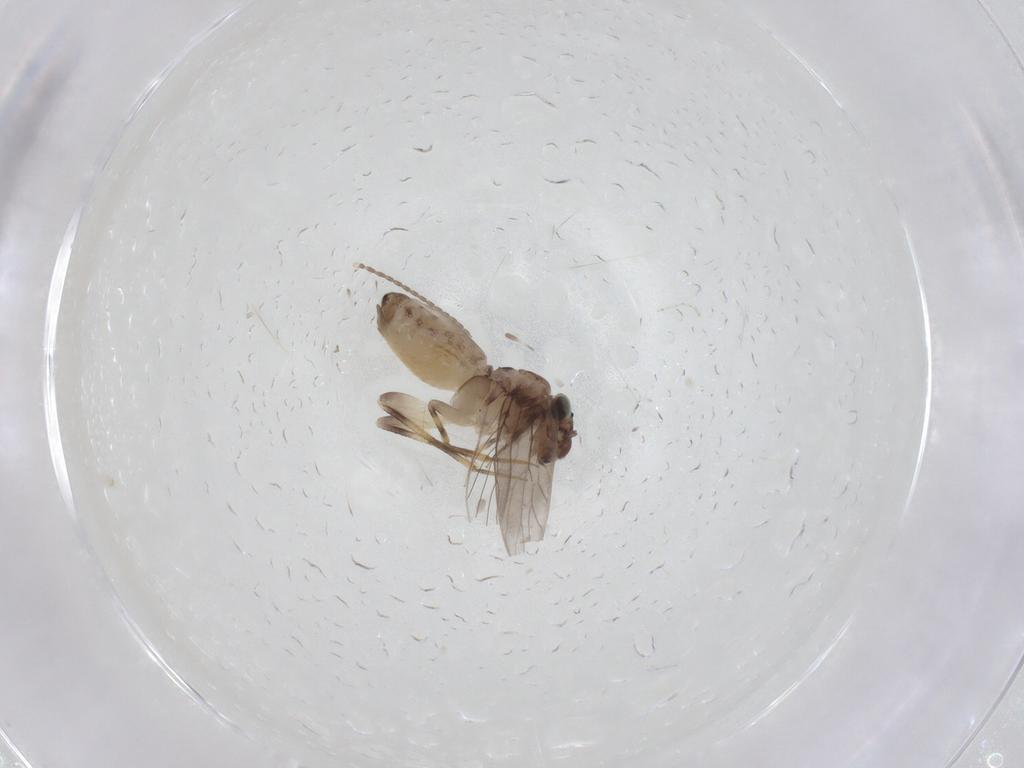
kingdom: Animalia
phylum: Arthropoda
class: Insecta
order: Psocodea
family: Lepidopsocidae
